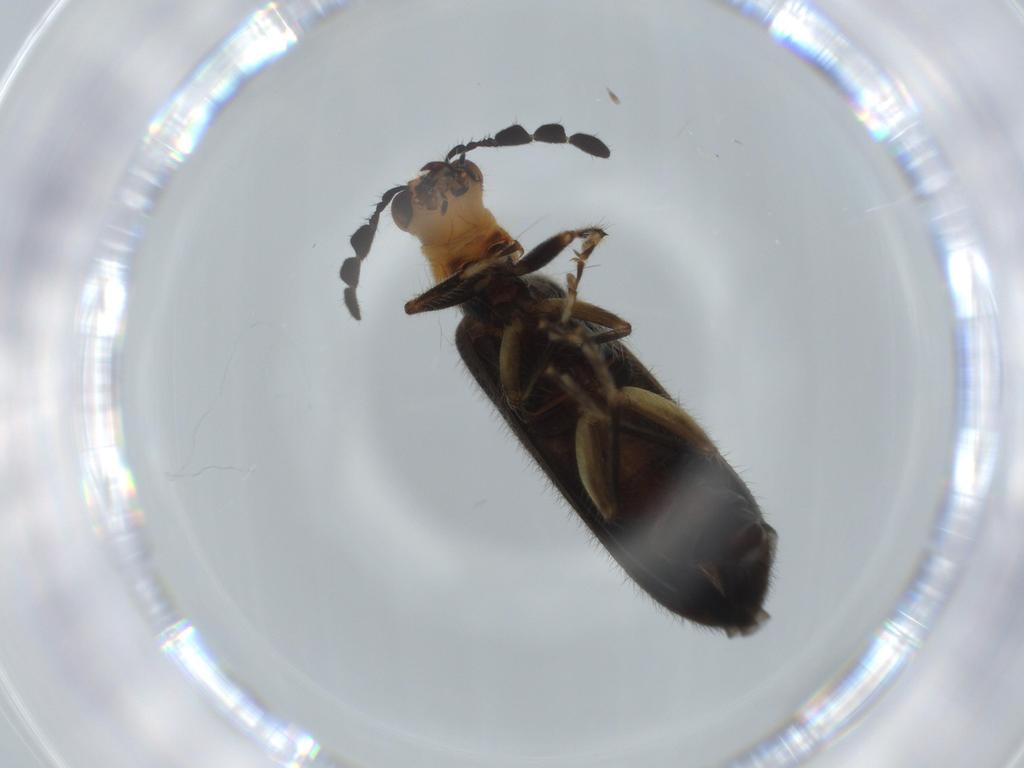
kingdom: Animalia
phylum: Arthropoda
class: Insecta
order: Coleoptera
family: Cleridae
